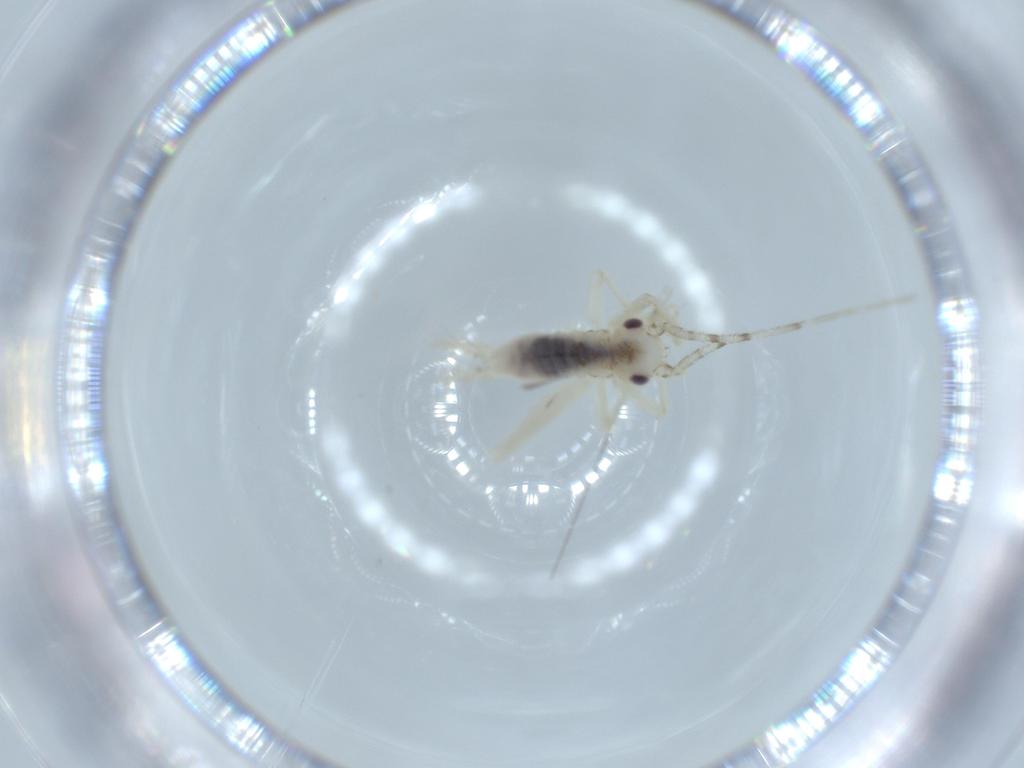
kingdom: Animalia
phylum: Arthropoda
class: Insecta
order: Orthoptera
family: Trigonidiidae
